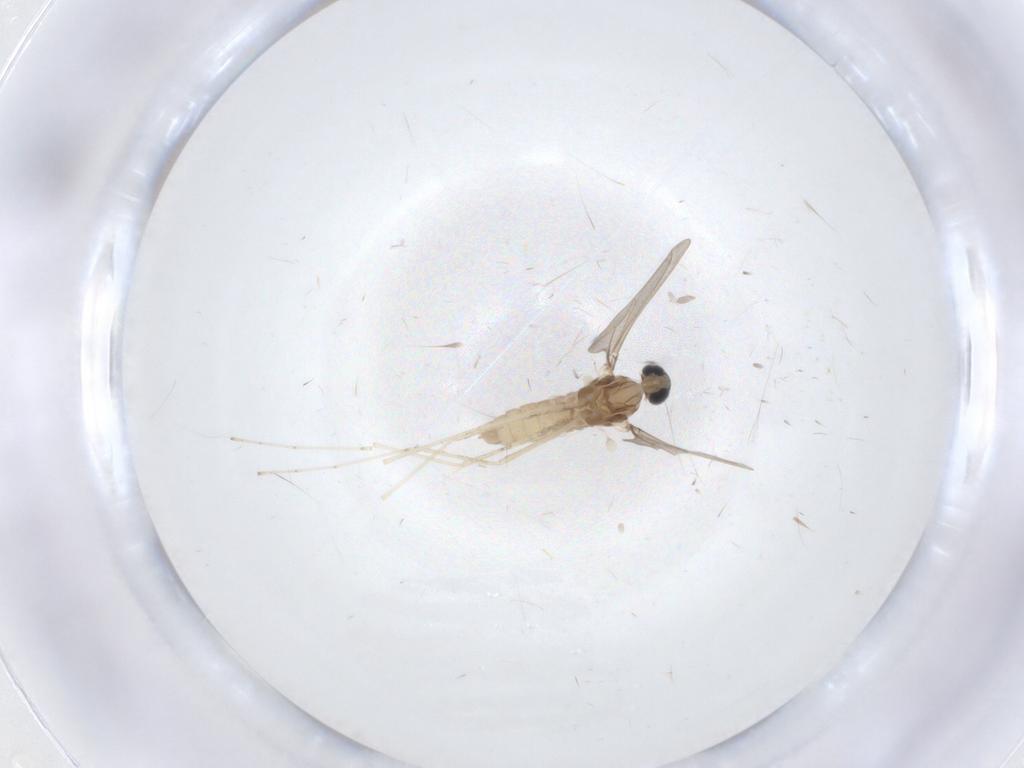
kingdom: Animalia
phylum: Arthropoda
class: Insecta
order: Diptera
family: Cecidomyiidae
